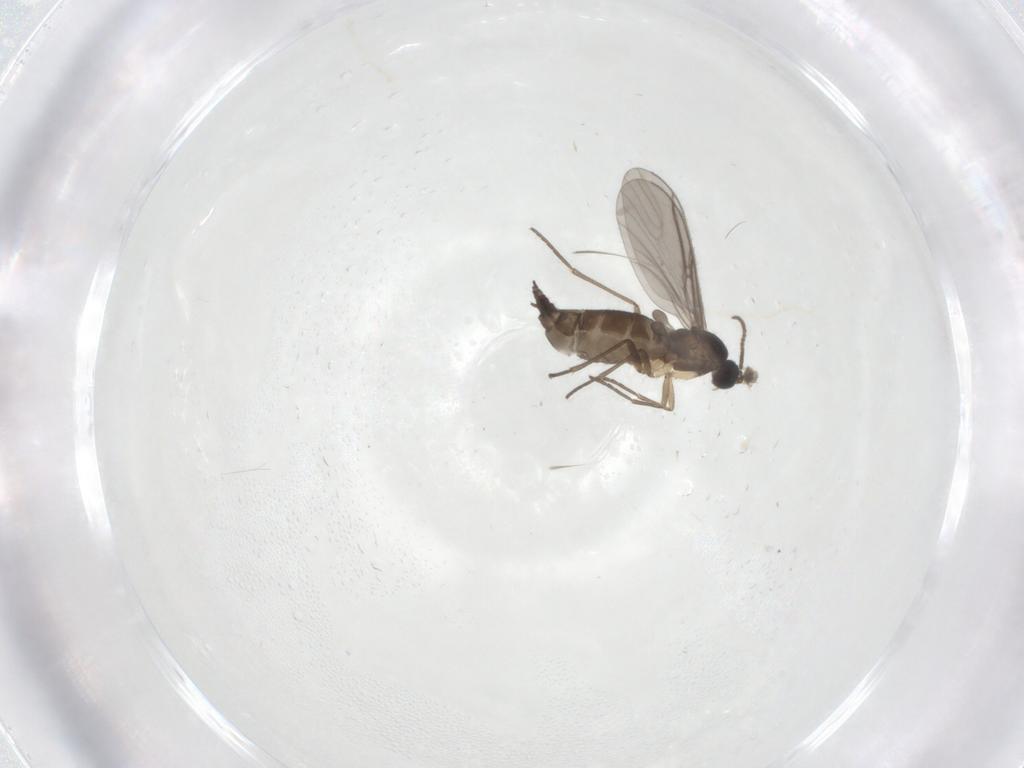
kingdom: Animalia
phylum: Arthropoda
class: Insecta
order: Diptera
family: Sciaridae
